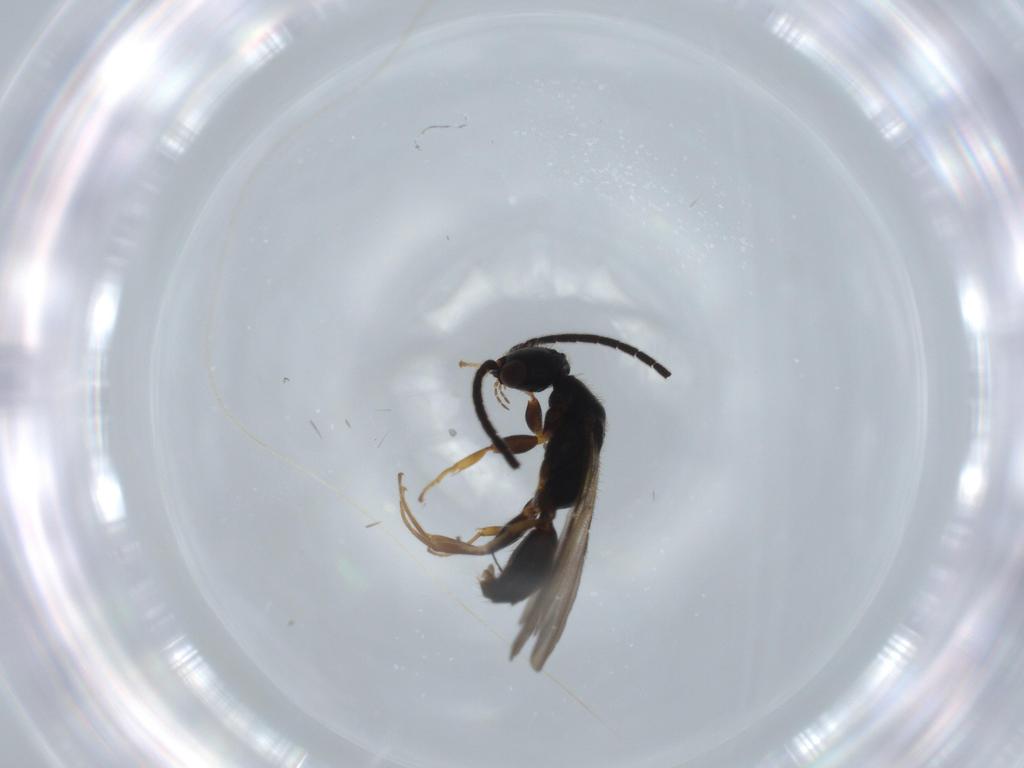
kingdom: Animalia
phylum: Arthropoda
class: Insecta
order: Hymenoptera
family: Bethylidae
